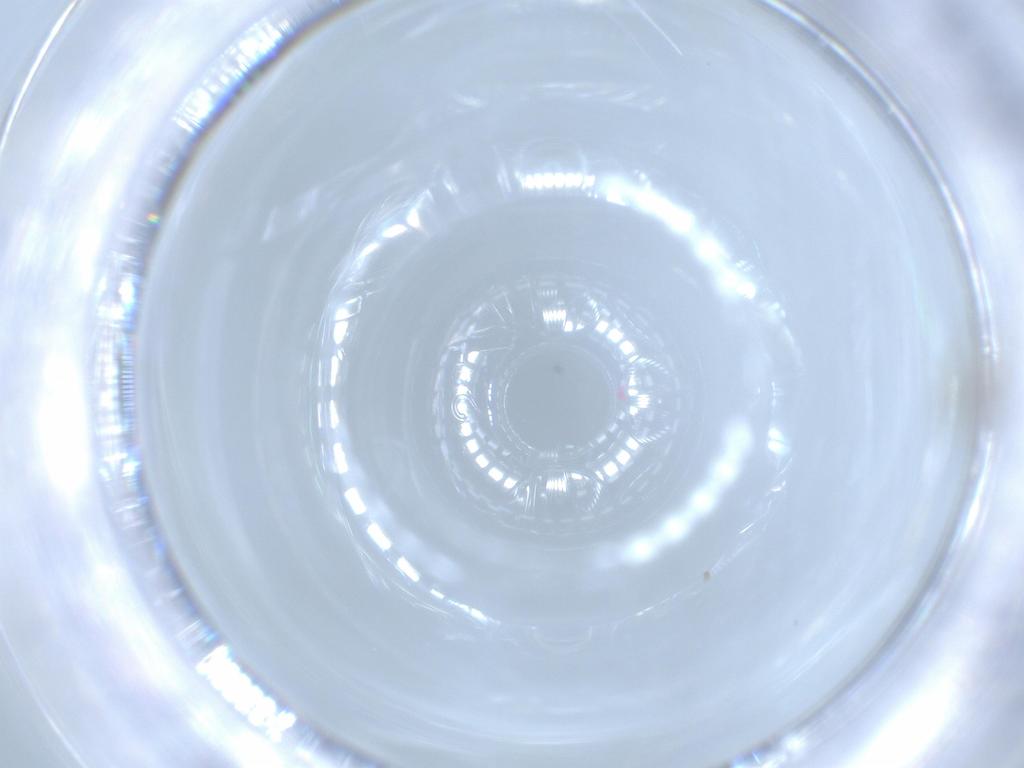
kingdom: Animalia
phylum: Arthropoda
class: Insecta
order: Diptera
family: Cecidomyiidae
